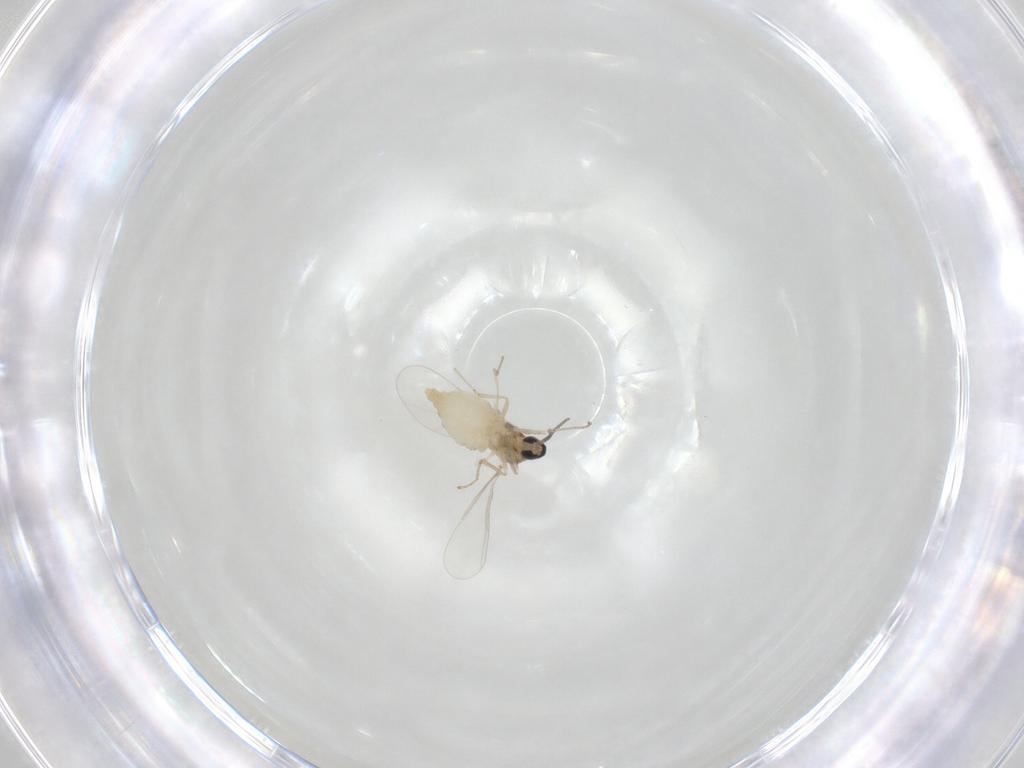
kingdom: Animalia
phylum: Arthropoda
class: Insecta
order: Diptera
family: Cecidomyiidae
